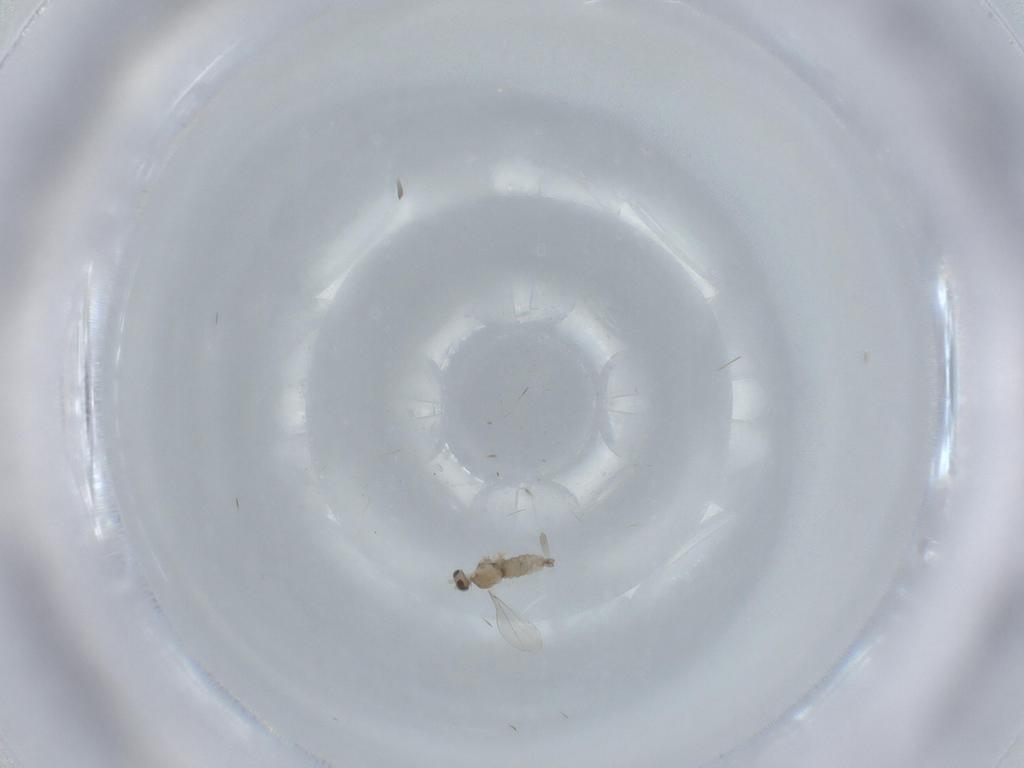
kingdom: Animalia
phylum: Arthropoda
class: Insecta
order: Diptera
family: Cecidomyiidae
